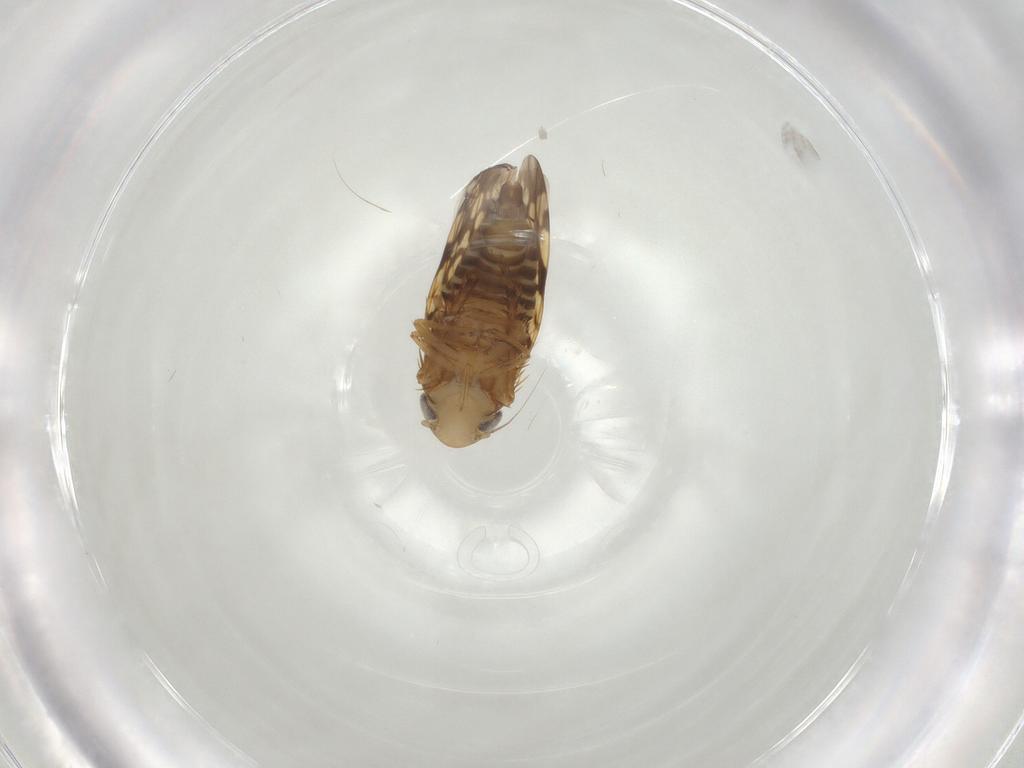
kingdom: Animalia
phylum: Arthropoda
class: Insecta
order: Hemiptera
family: Cicadellidae
